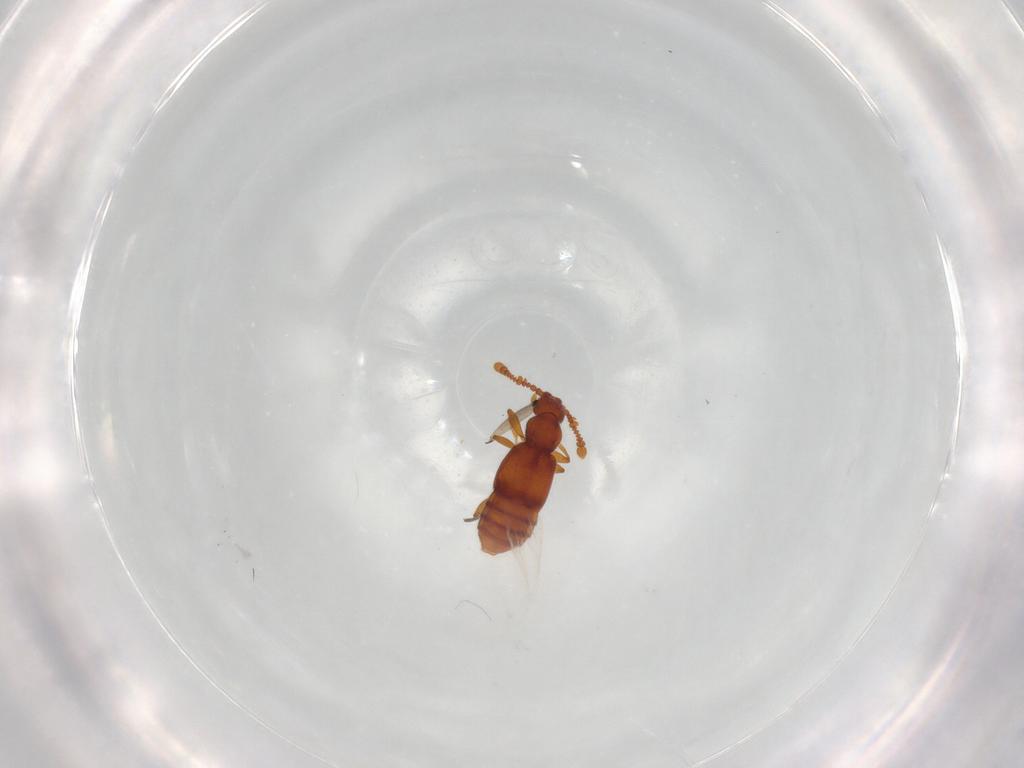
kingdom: Animalia
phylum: Arthropoda
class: Insecta
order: Coleoptera
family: Staphylinidae
